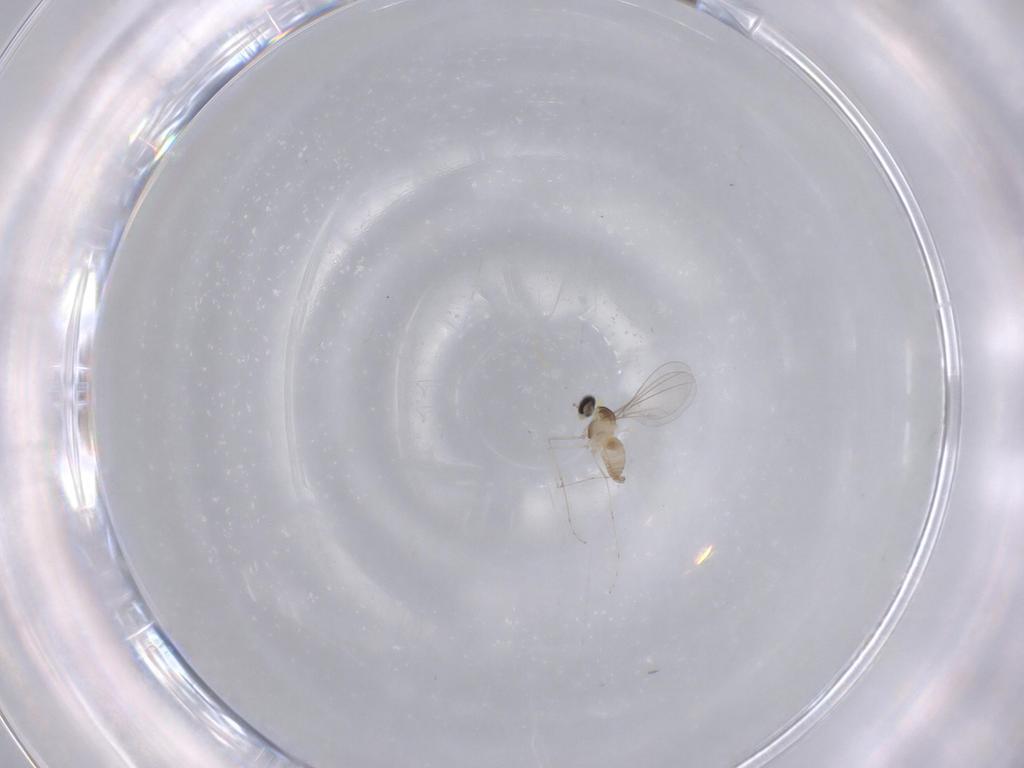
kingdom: Animalia
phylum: Arthropoda
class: Insecta
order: Diptera
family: Cecidomyiidae
